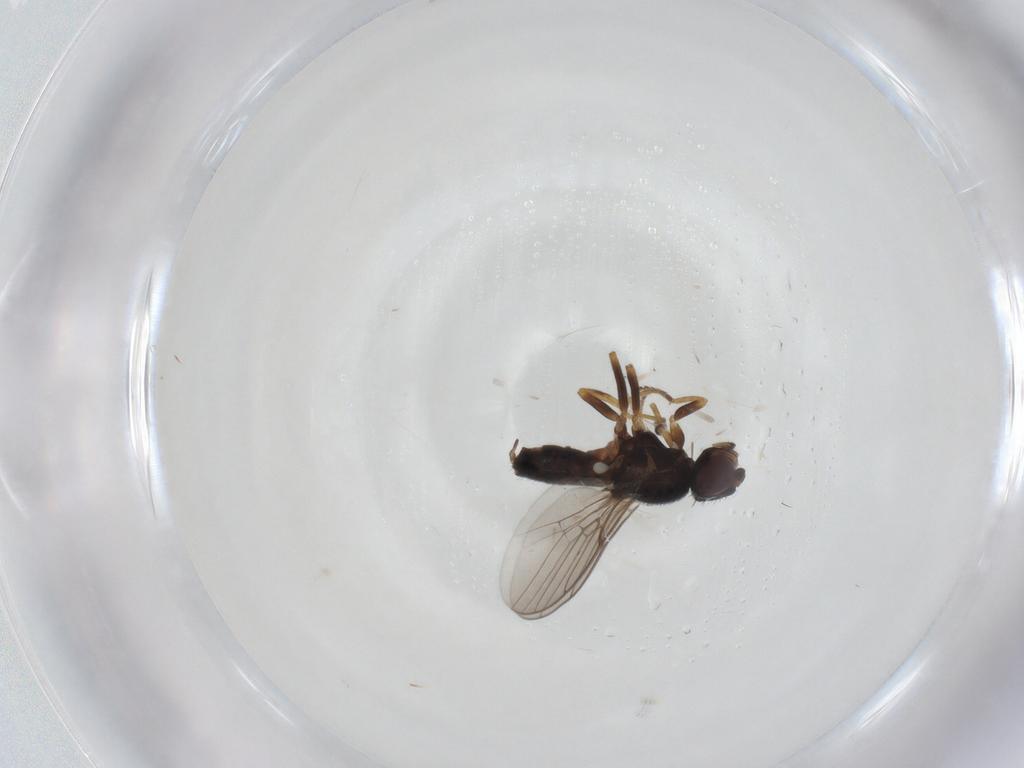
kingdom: Animalia
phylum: Arthropoda
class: Insecta
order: Diptera
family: Chloropidae
